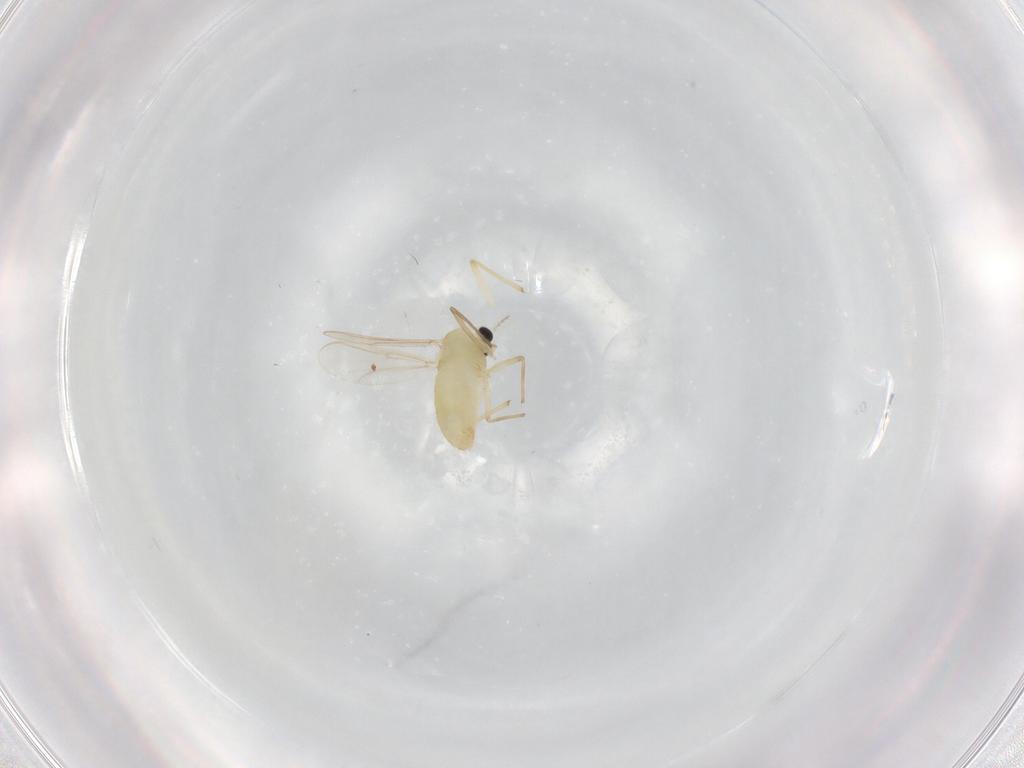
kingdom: Animalia
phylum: Arthropoda
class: Insecta
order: Diptera
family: Chironomidae
